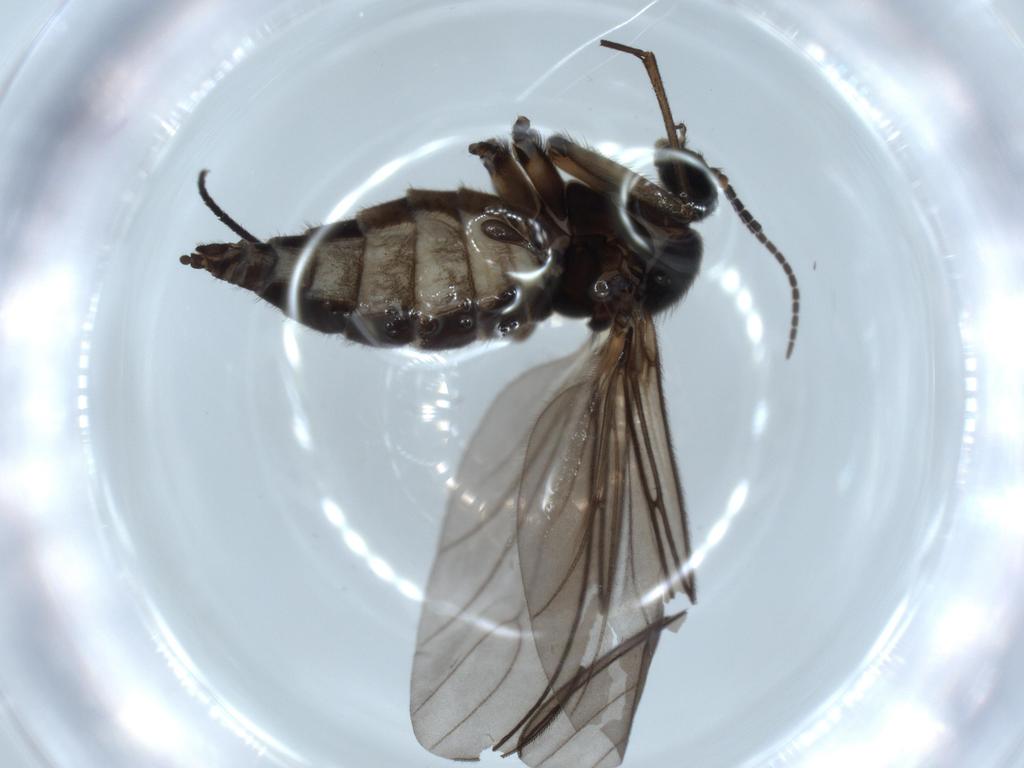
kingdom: Animalia
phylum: Arthropoda
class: Insecta
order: Diptera
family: Sciaridae
